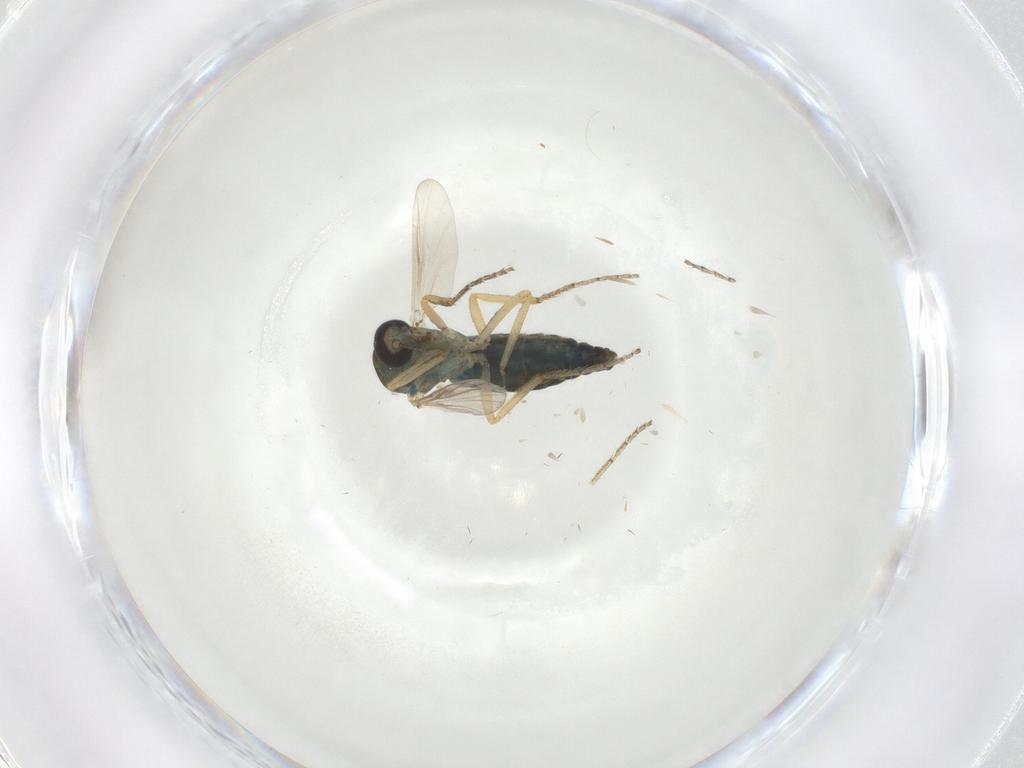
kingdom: Animalia
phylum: Arthropoda
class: Insecta
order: Diptera
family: Ceratopogonidae
